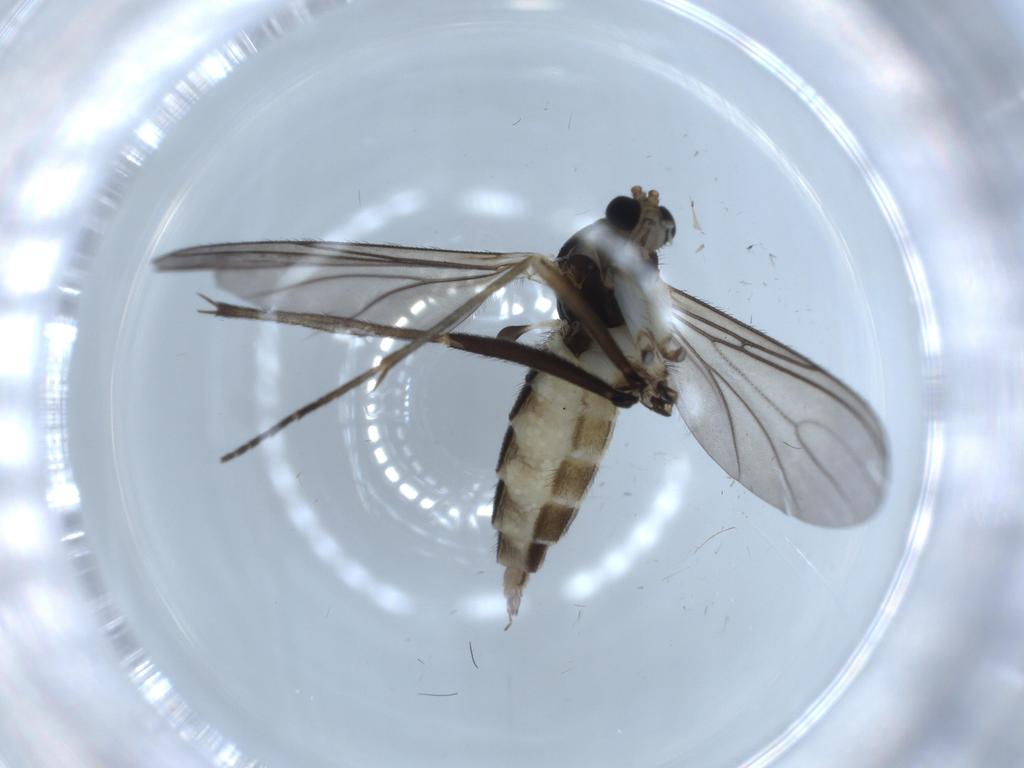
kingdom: Animalia
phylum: Arthropoda
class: Insecta
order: Diptera
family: Sciaridae
